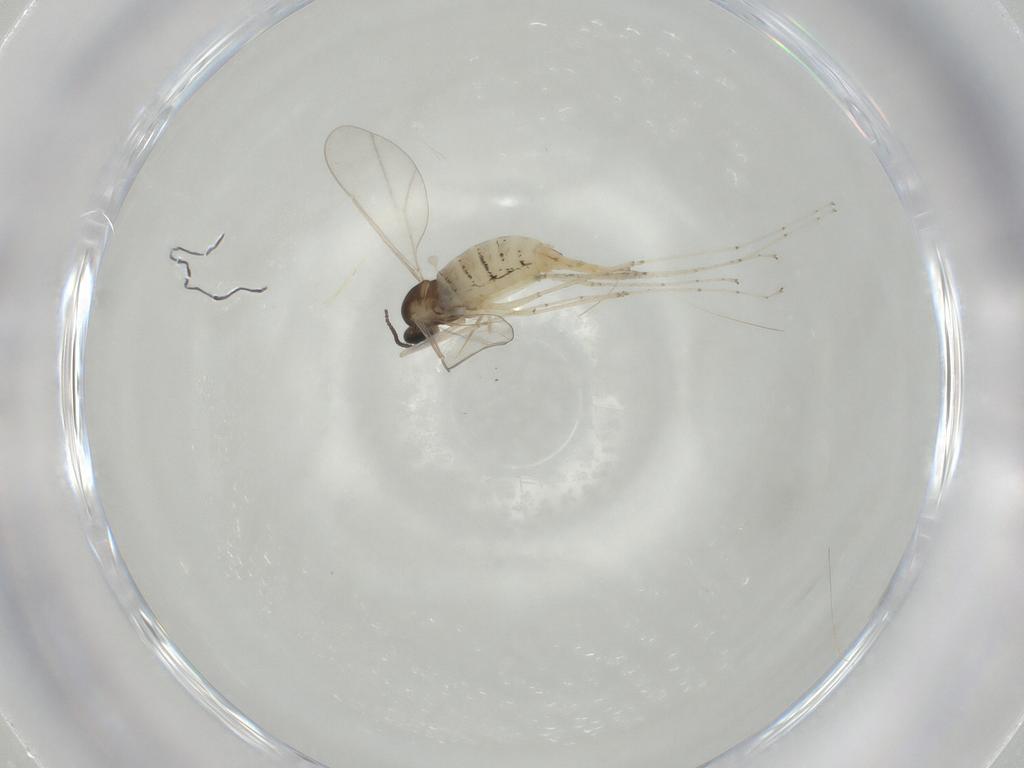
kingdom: Animalia
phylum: Arthropoda
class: Insecta
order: Diptera
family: Cecidomyiidae
